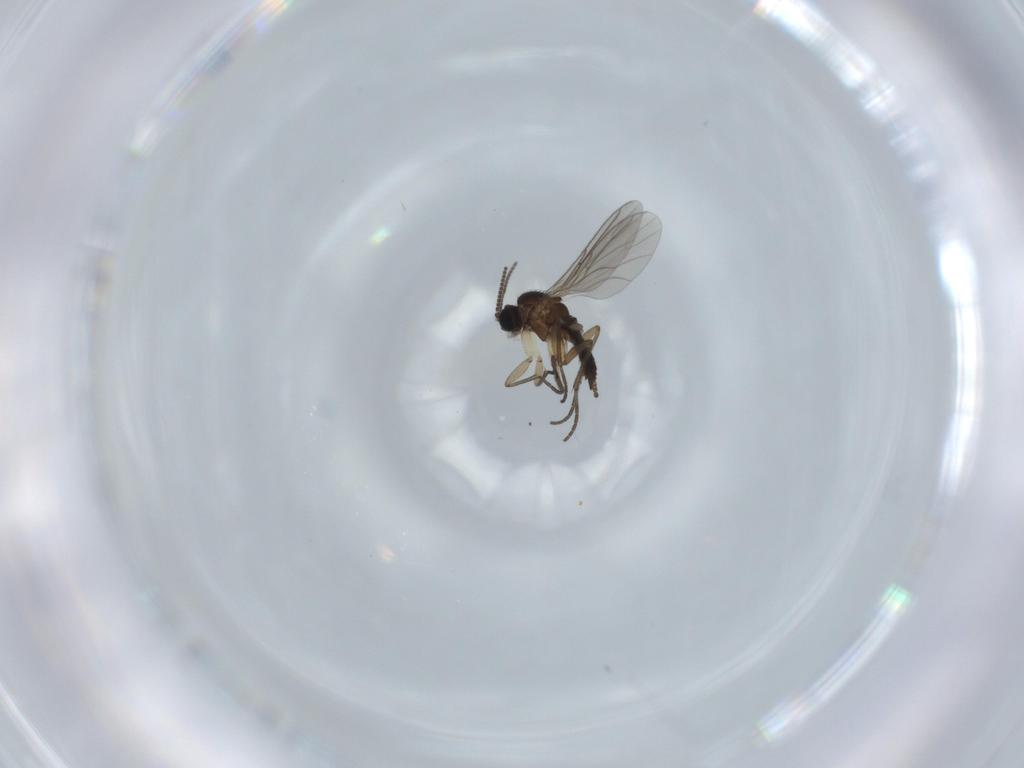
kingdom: Animalia
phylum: Arthropoda
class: Insecta
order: Diptera
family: Sciaridae
